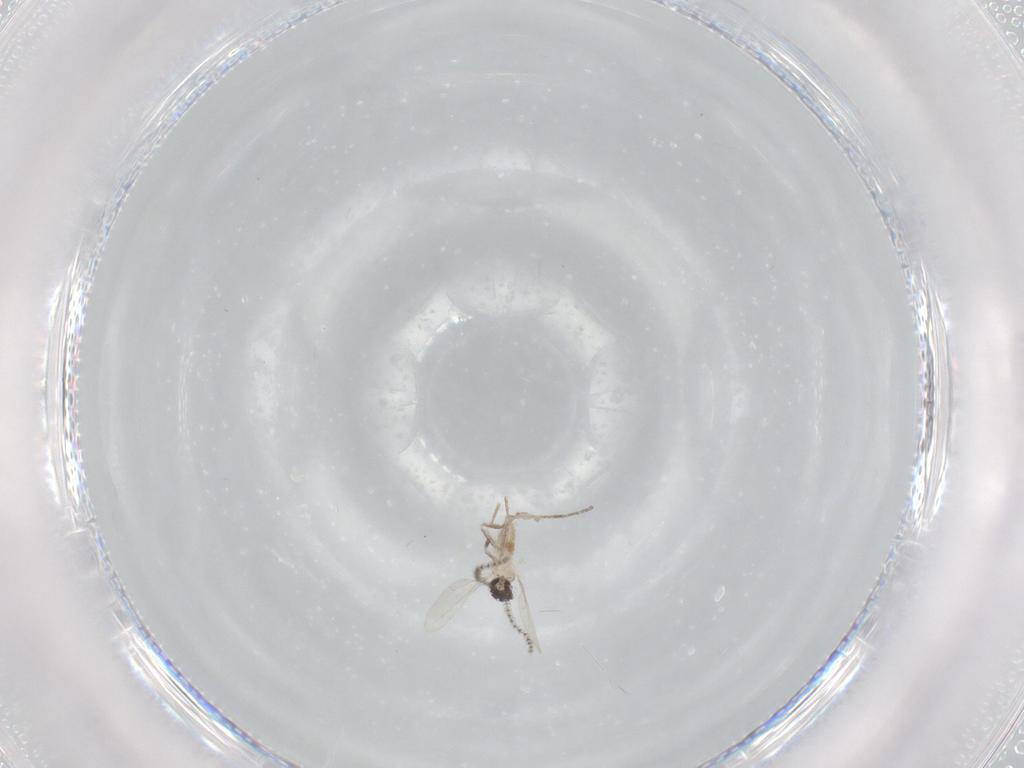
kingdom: Animalia
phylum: Arthropoda
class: Insecta
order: Diptera
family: Cecidomyiidae
